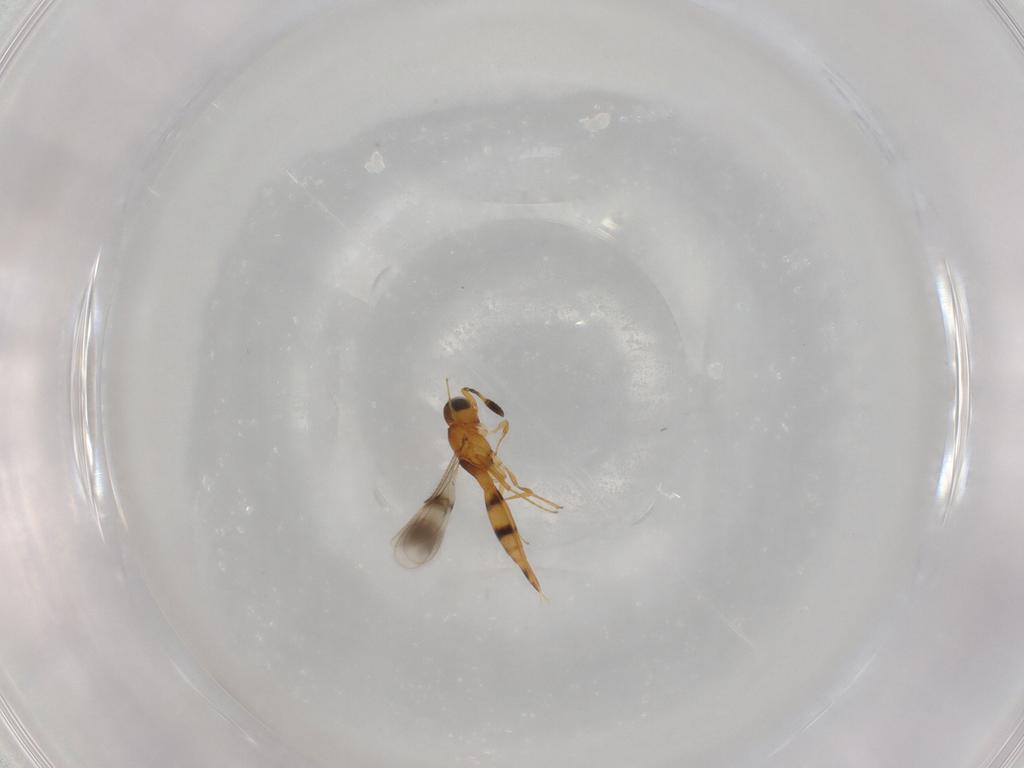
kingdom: Animalia
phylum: Arthropoda
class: Insecta
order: Hymenoptera
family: Scelionidae
